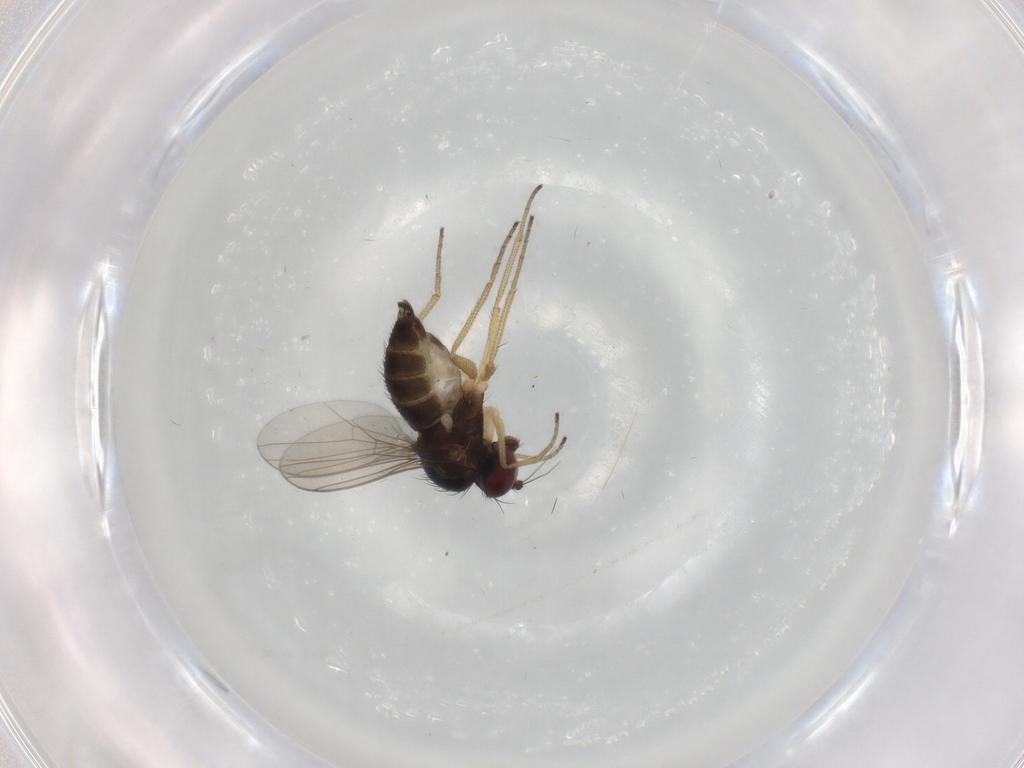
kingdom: Animalia
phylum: Arthropoda
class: Insecta
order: Diptera
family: Dolichopodidae
